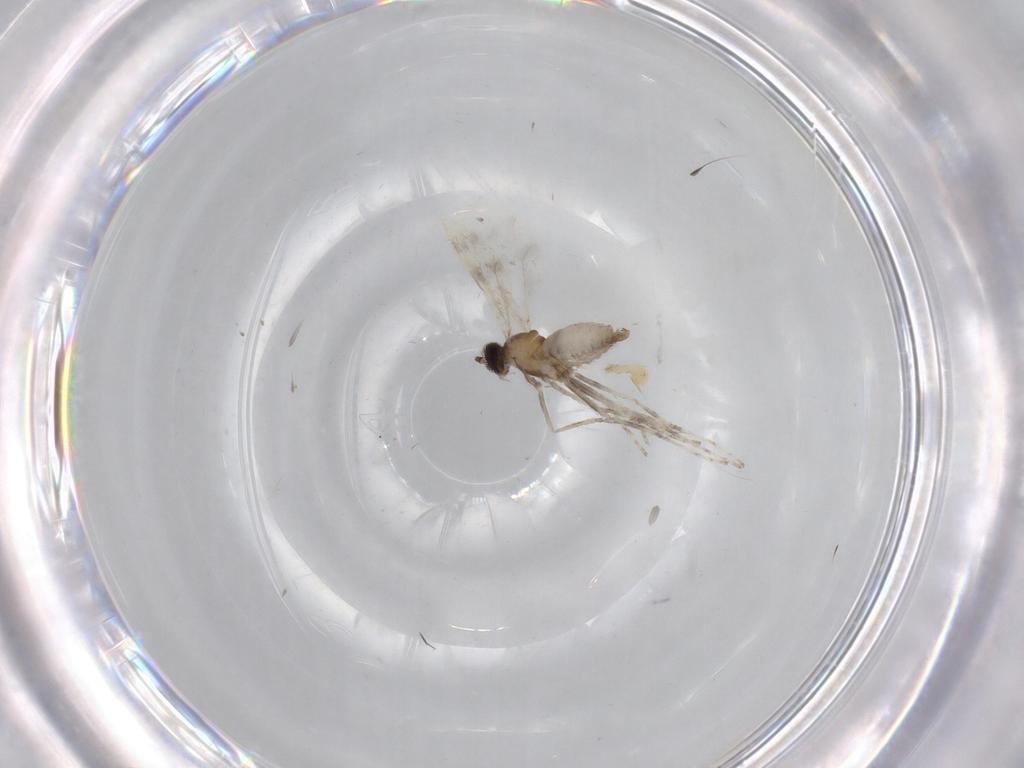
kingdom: Animalia
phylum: Arthropoda
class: Insecta
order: Diptera
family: Cecidomyiidae
